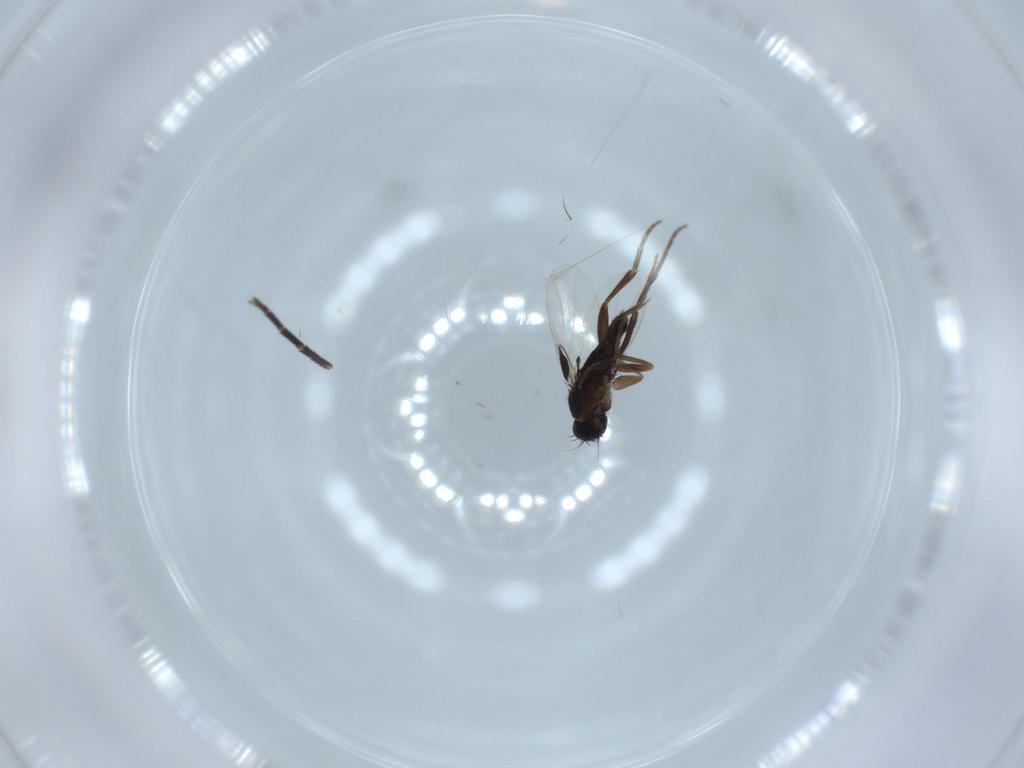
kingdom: Animalia
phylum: Arthropoda
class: Insecta
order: Diptera
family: Mycetophilidae
